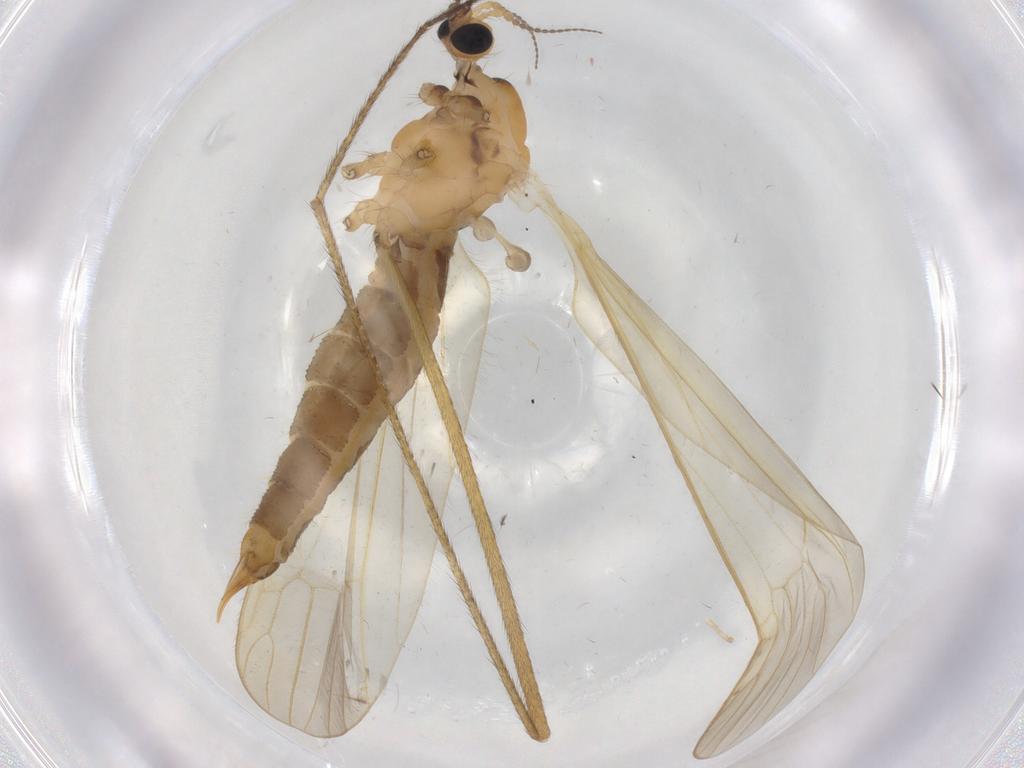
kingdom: Animalia
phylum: Arthropoda
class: Insecta
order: Diptera
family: Sciaridae
